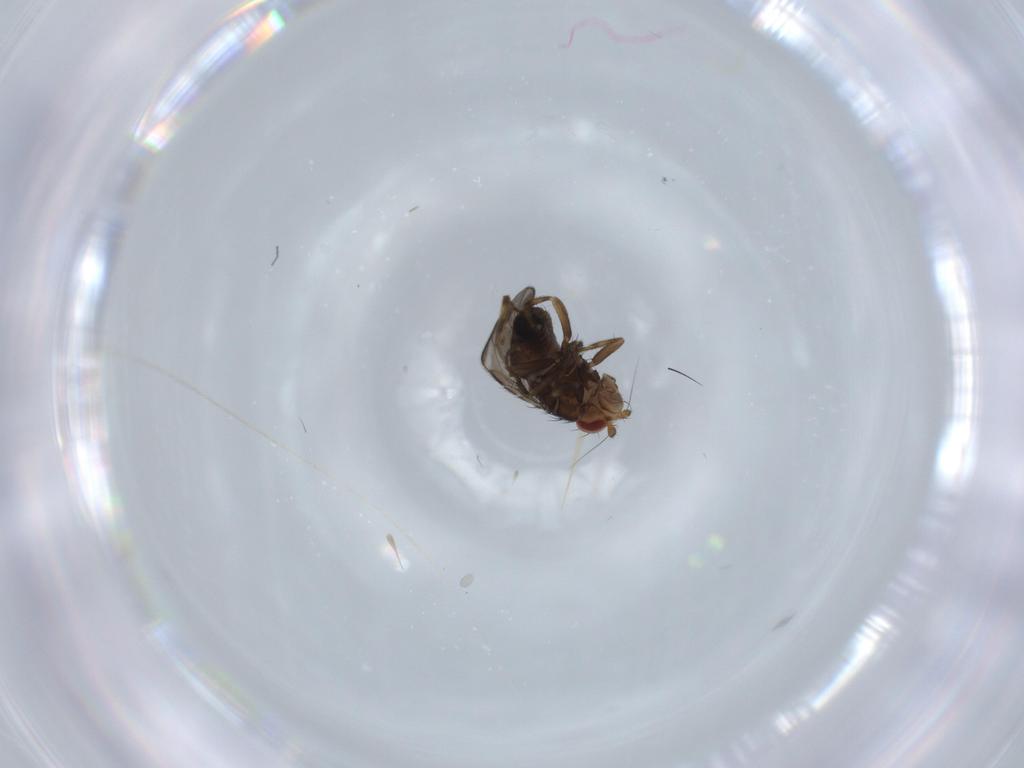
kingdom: Animalia
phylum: Arthropoda
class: Insecta
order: Diptera
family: Sphaeroceridae
